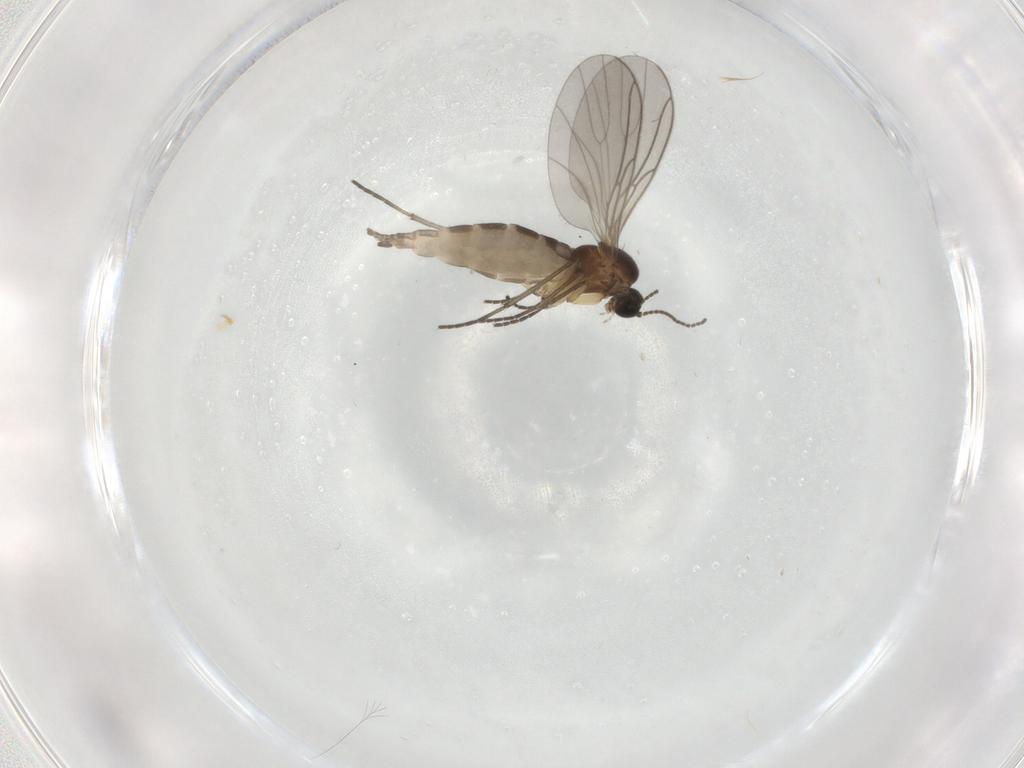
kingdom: Animalia
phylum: Arthropoda
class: Insecta
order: Diptera
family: Sciaridae
